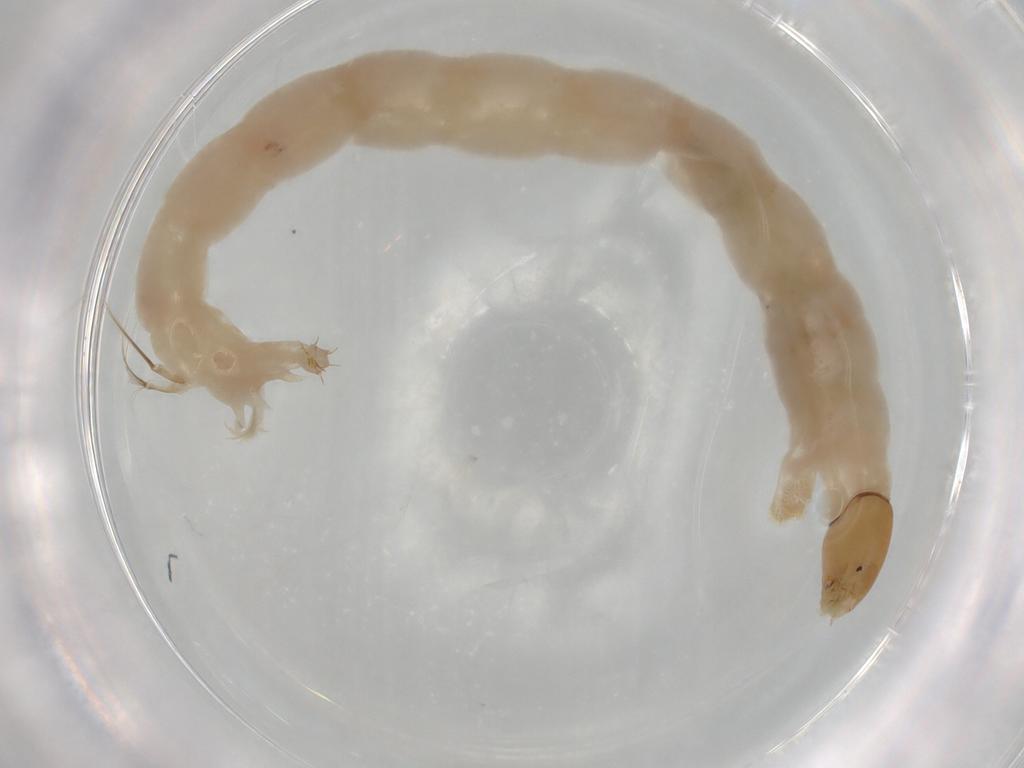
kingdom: Animalia
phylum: Arthropoda
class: Insecta
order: Diptera
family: Chironomidae
